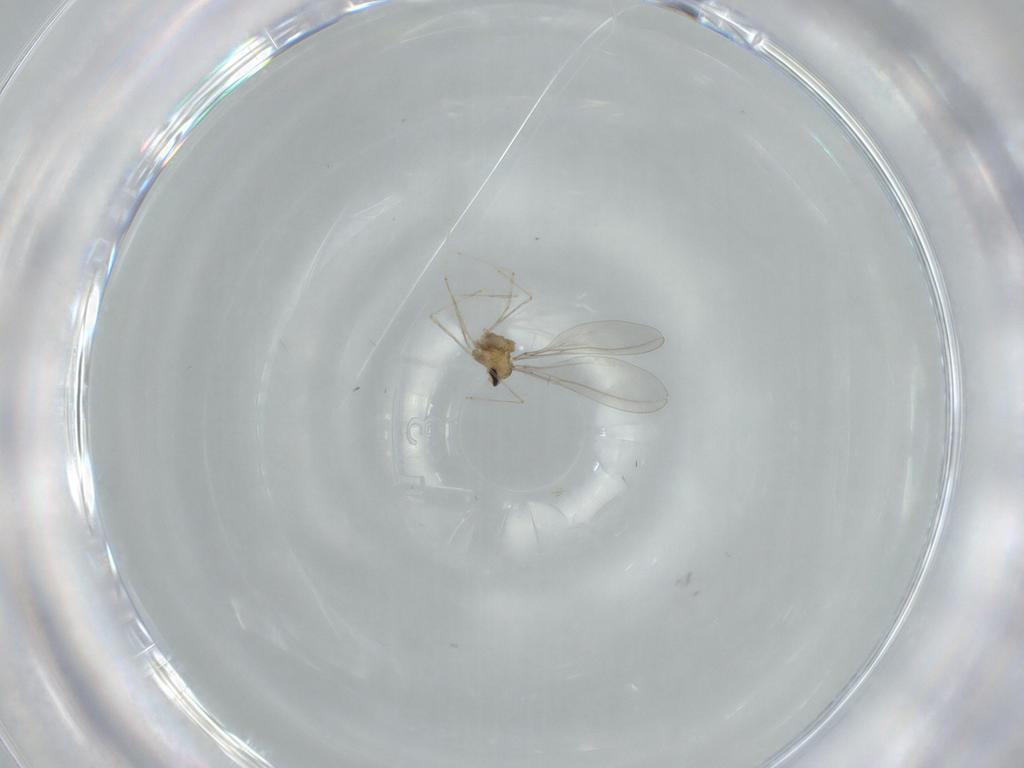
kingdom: Animalia
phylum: Arthropoda
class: Insecta
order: Diptera
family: Cecidomyiidae
